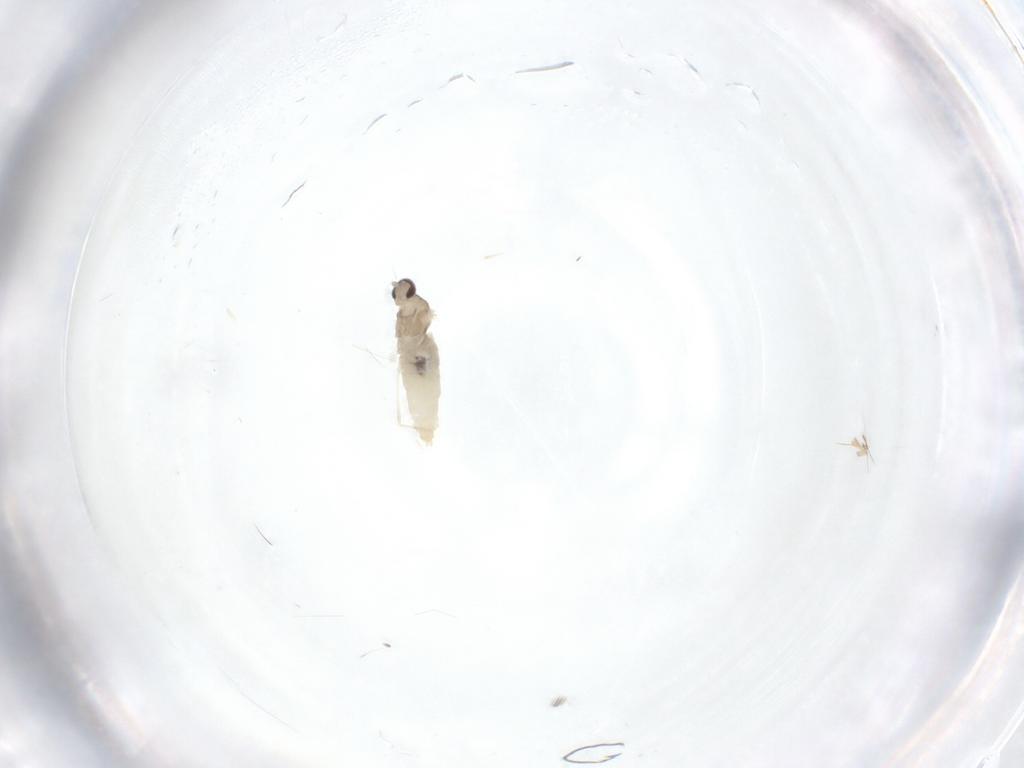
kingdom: Animalia
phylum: Arthropoda
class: Insecta
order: Diptera
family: Cecidomyiidae
